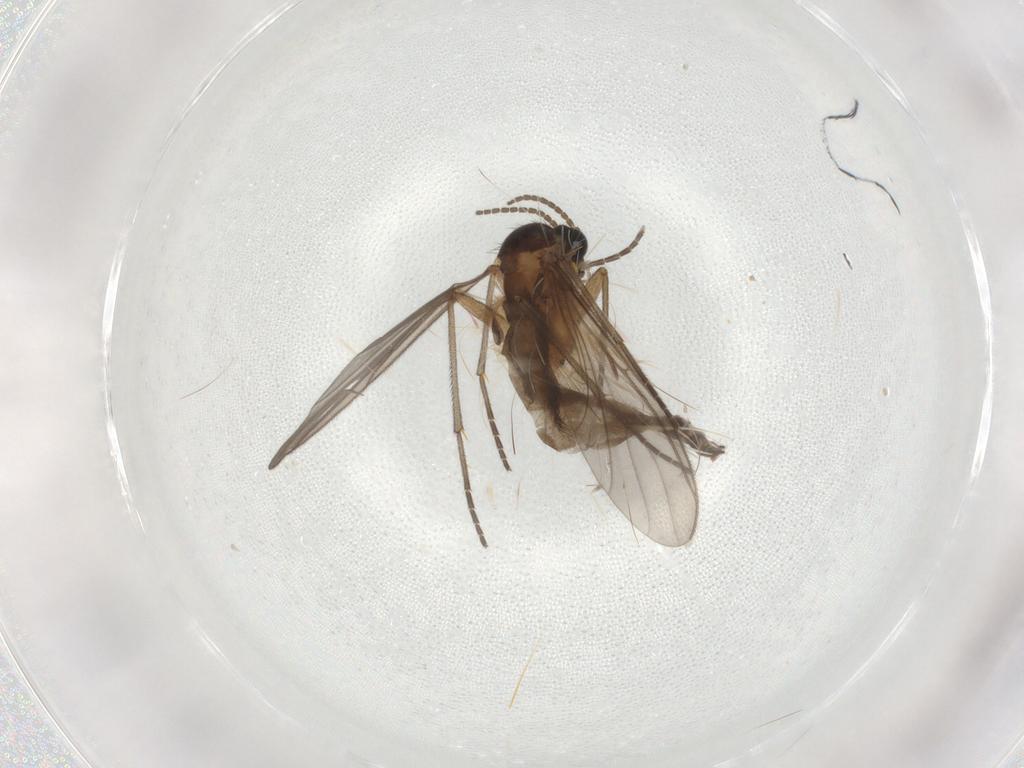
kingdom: Animalia
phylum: Arthropoda
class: Insecta
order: Diptera
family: Sciaridae
